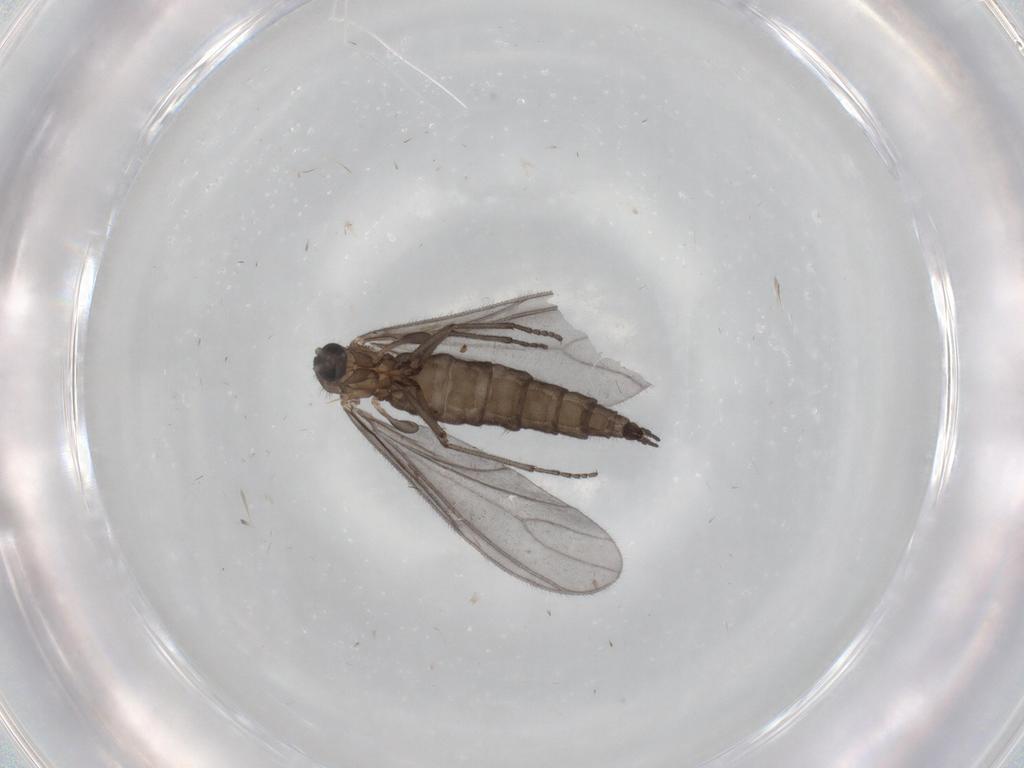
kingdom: Animalia
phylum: Arthropoda
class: Insecta
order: Diptera
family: Sciaridae
